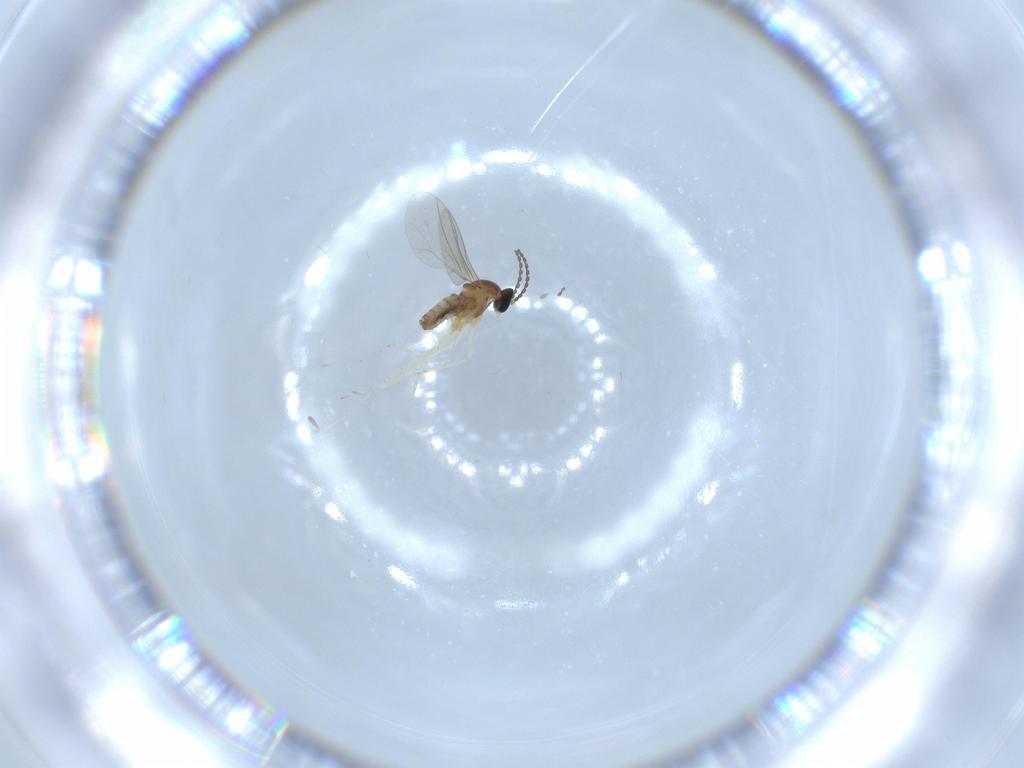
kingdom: Animalia
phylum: Arthropoda
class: Insecta
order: Diptera
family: Cecidomyiidae
